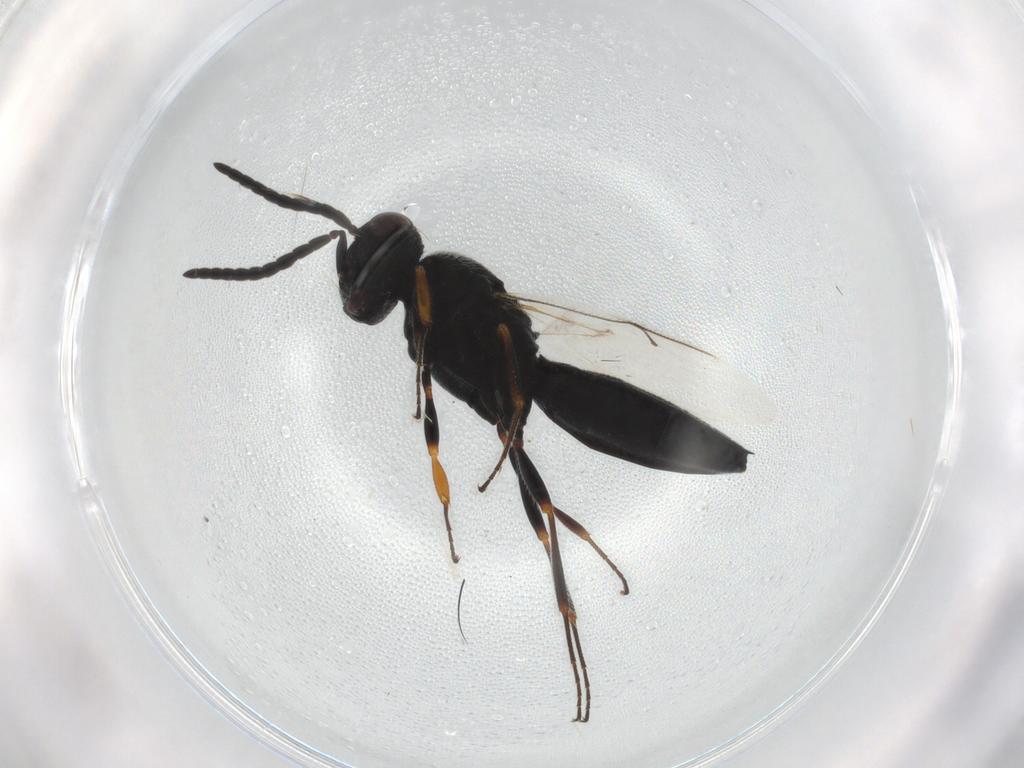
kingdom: Animalia
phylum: Arthropoda
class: Insecta
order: Hymenoptera
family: Scelionidae
